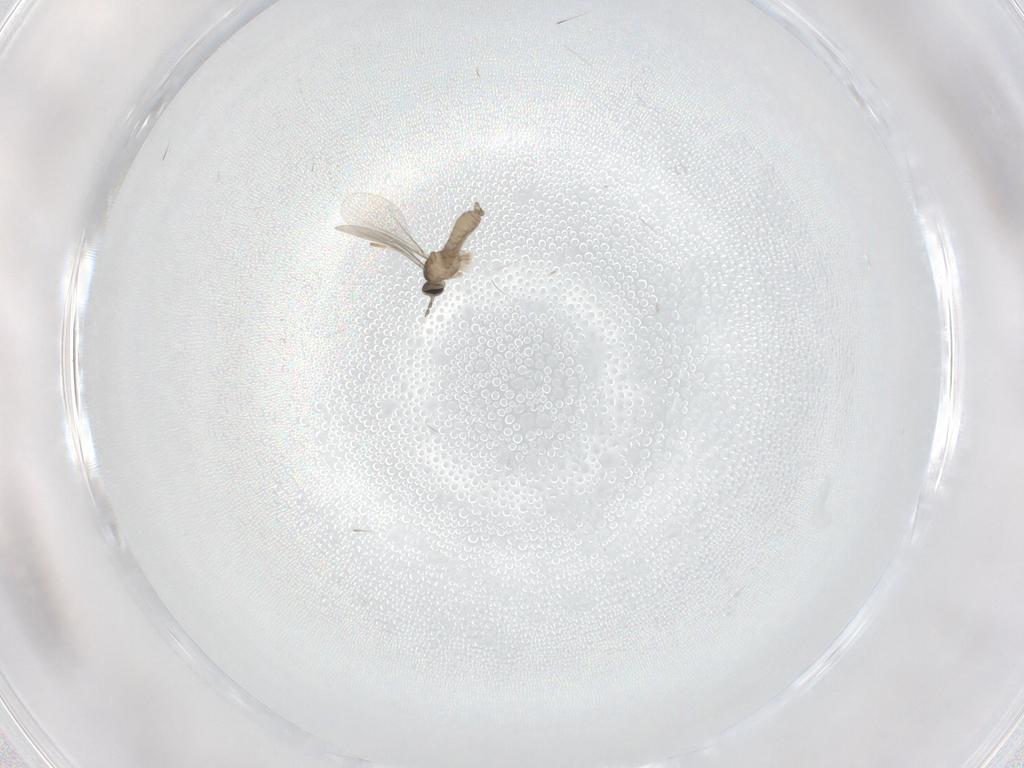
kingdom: Animalia
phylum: Arthropoda
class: Insecta
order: Diptera
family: Sciaridae
